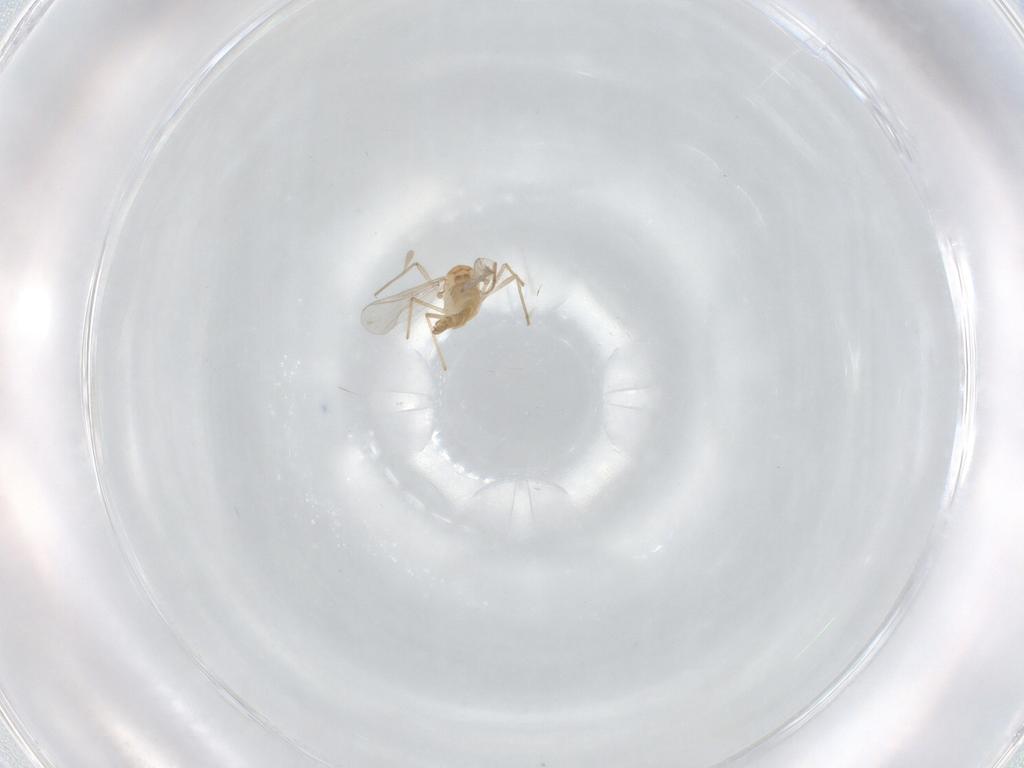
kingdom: Animalia
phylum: Arthropoda
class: Insecta
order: Diptera
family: Chironomidae
